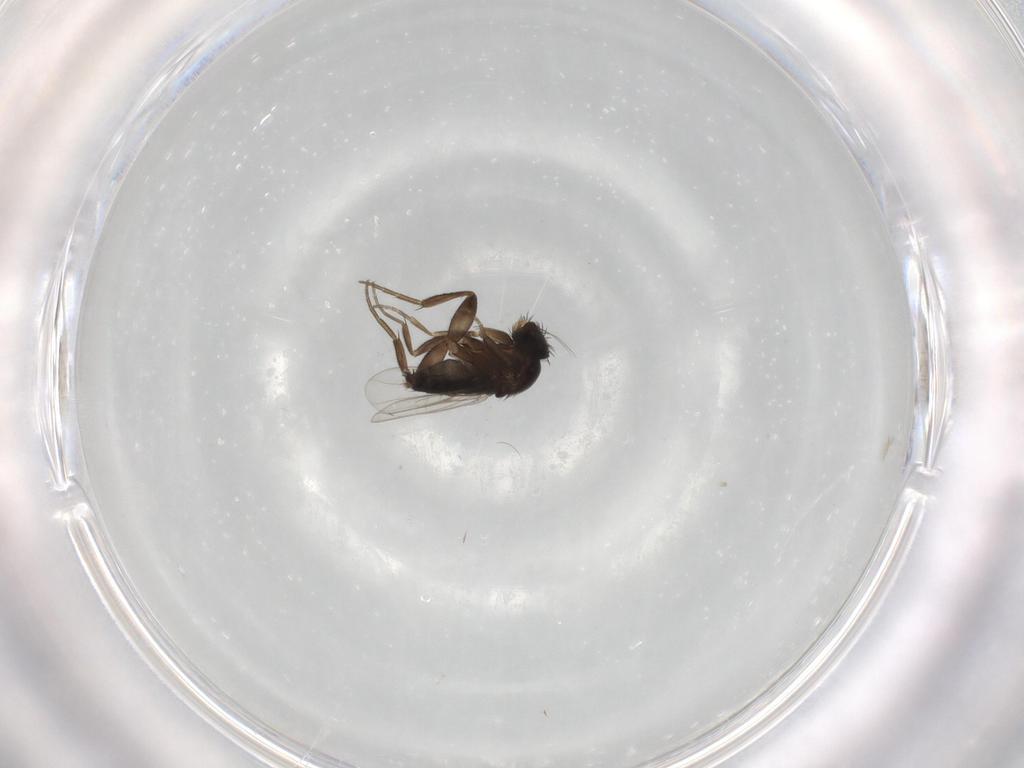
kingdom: Animalia
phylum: Arthropoda
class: Insecta
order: Diptera
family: Phoridae
